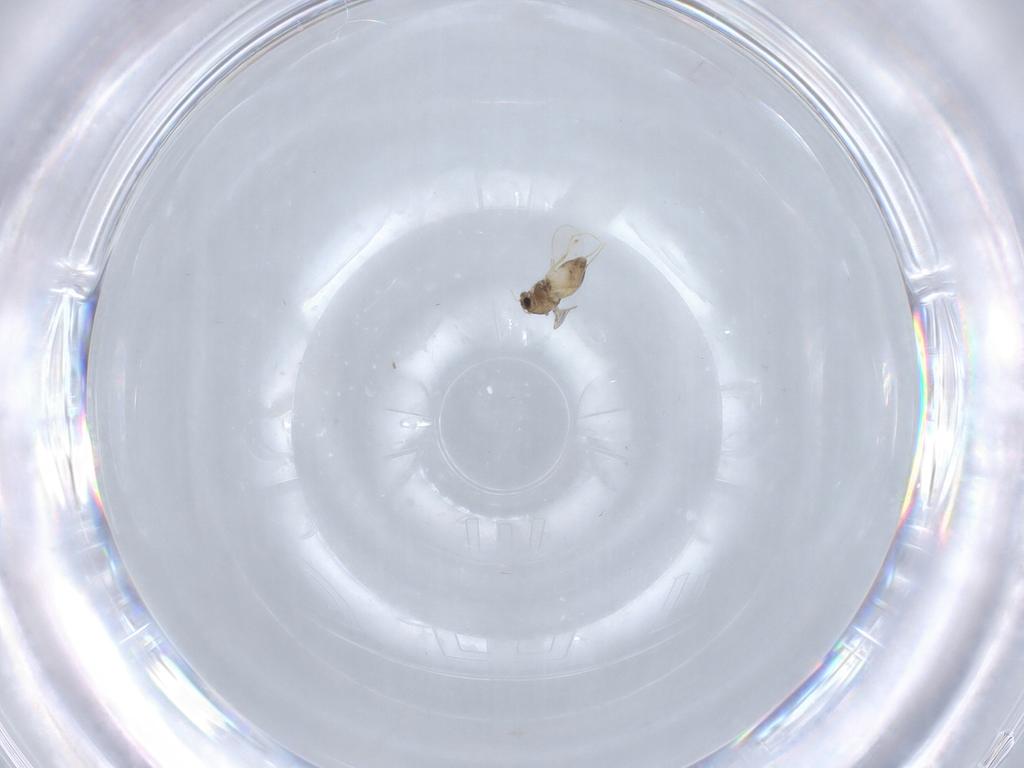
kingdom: Animalia
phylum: Arthropoda
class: Insecta
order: Diptera
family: Chironomidae
